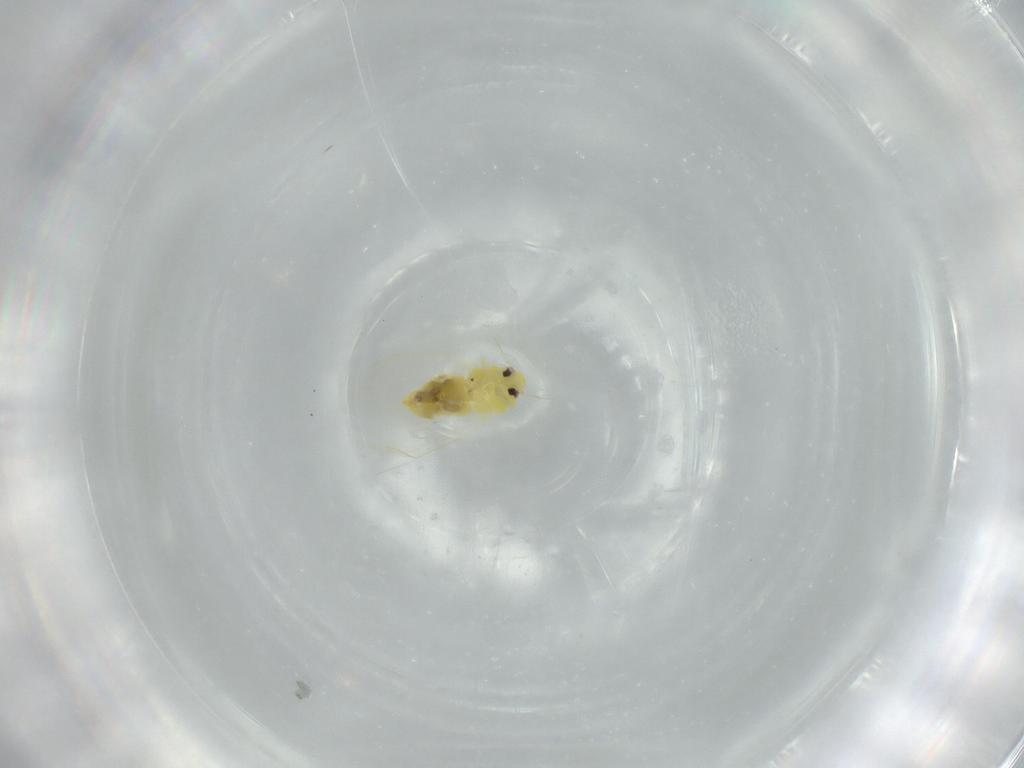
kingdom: Animalia
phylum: Arthropoda
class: Insecta
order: Hemiptera
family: Aleyrodidae
